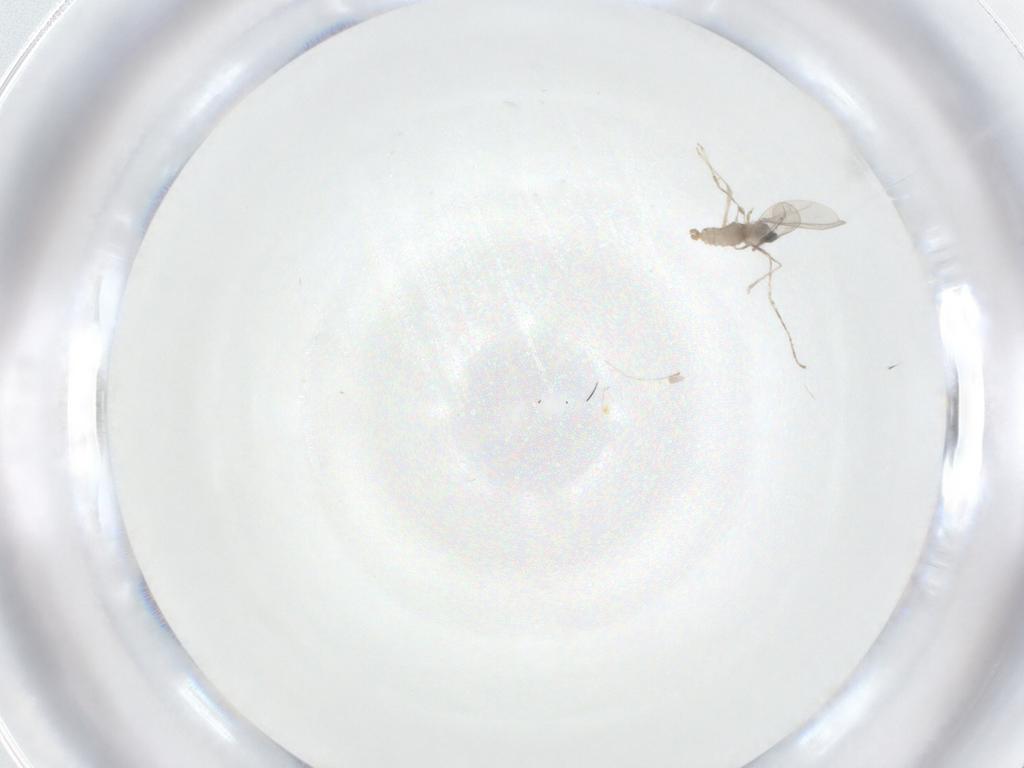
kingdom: Animalia
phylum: Arthropoda
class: Insecta
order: Diptera
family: Cecidomyiidae
